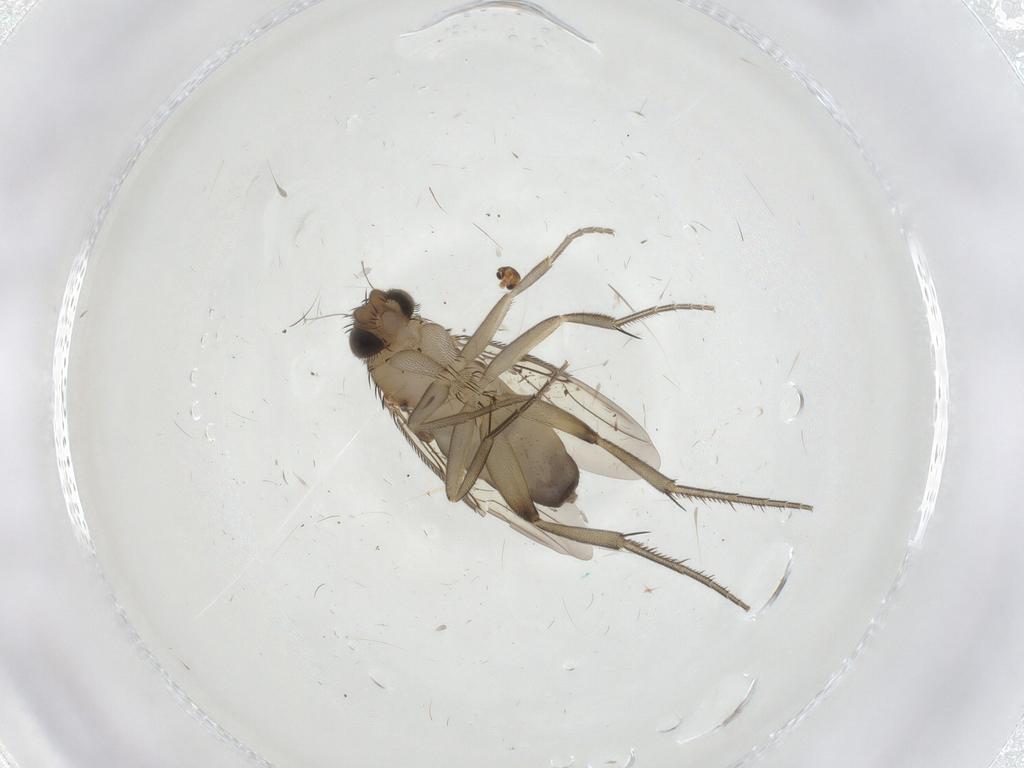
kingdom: Animalia
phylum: Arthropoda
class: Insecta
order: Diptera
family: Phoridae
